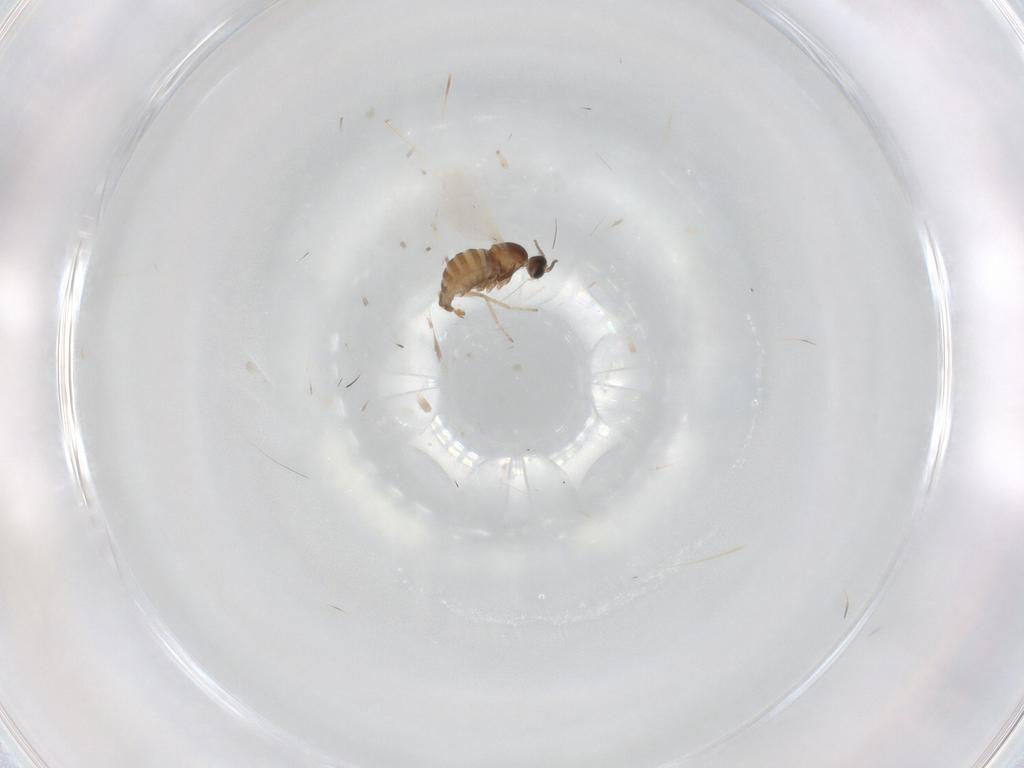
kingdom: Animalia
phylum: Arthropoda
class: Insecta
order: Diptera
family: Cecidomyiidae
